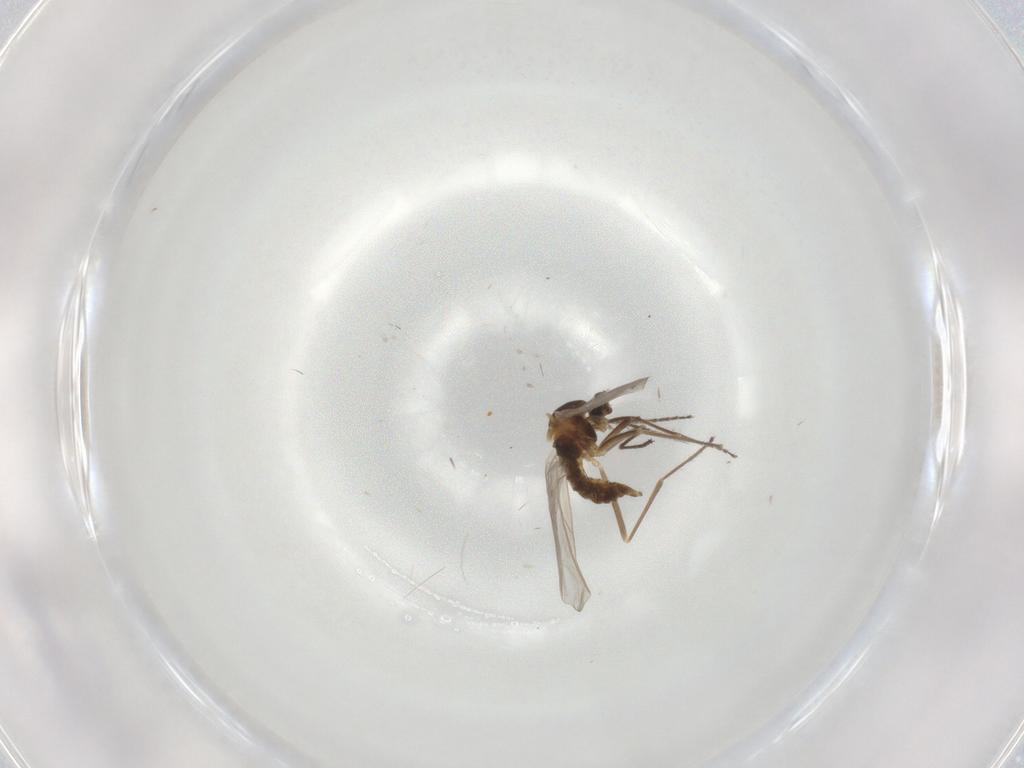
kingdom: Animalia
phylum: Arthropoda
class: Insecta
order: Diptera
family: Cecidomyiidae
